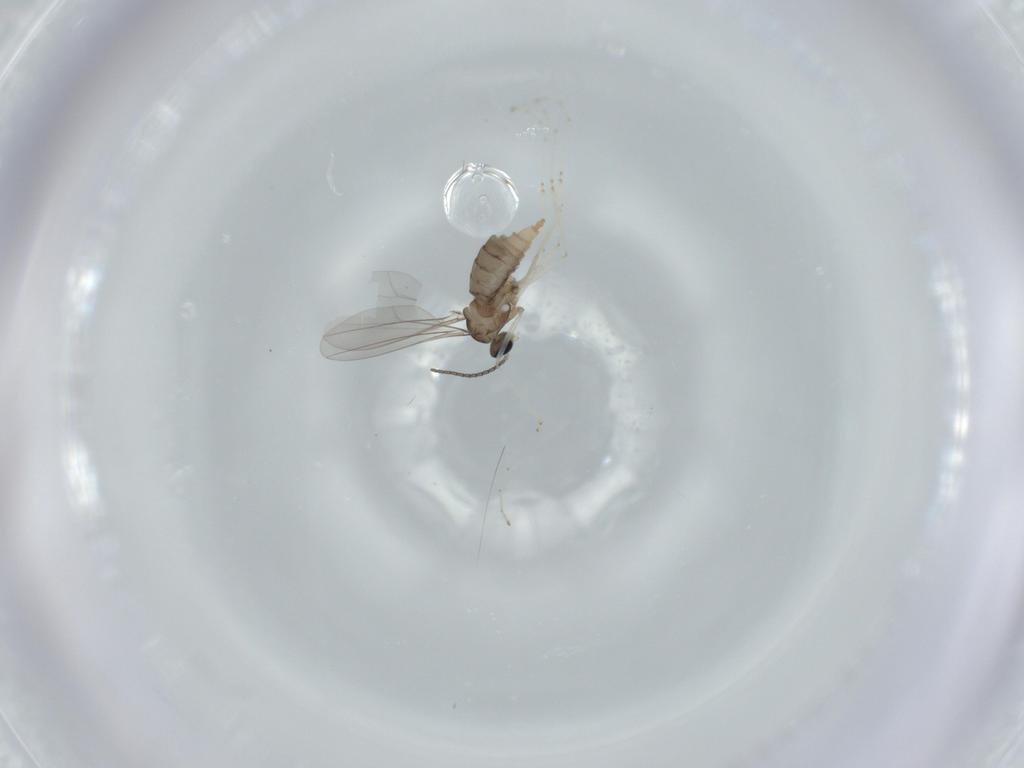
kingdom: Animalia
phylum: Arthropoda
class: Insecta
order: Diptera
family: Cecidomyiidae
